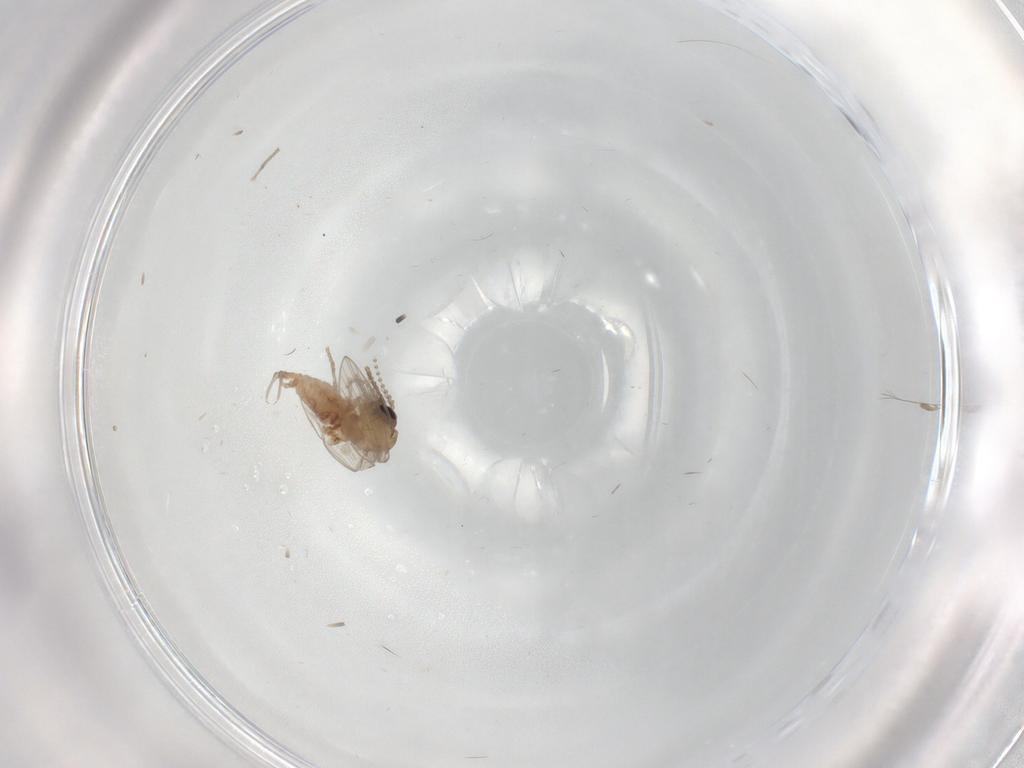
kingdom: Animalia
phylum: Arthropoda
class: Insecta
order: Diptera
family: Psychodidae
